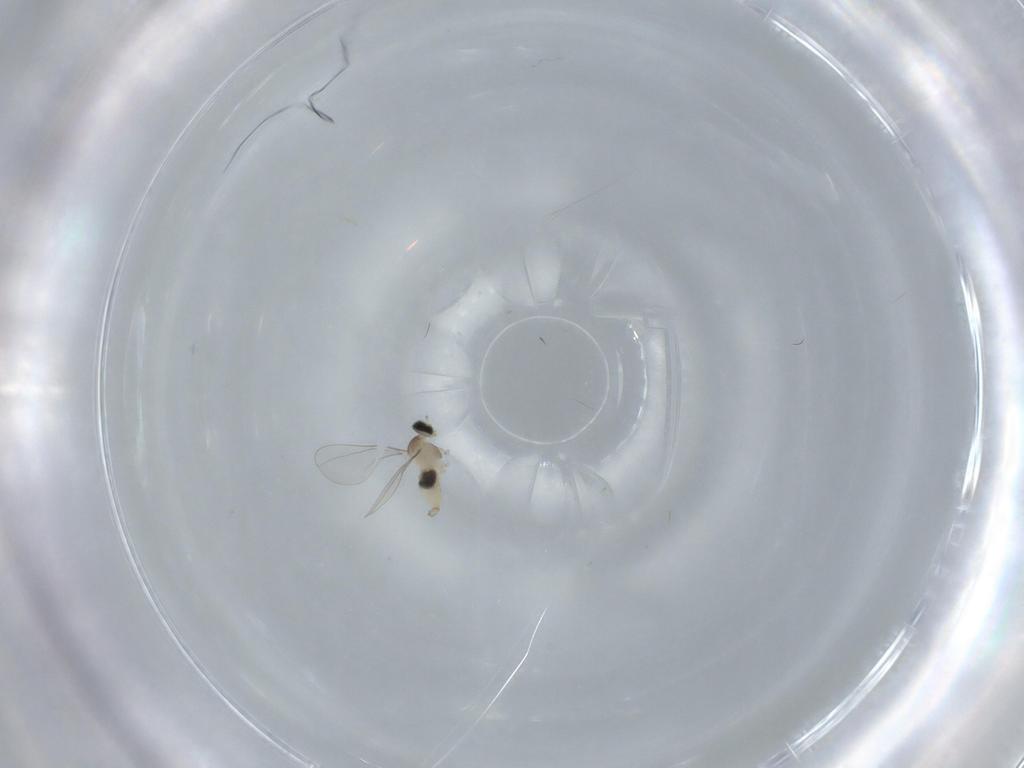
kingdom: Animalia
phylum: Arthropoda
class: Insecta
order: Diptera
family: Cecidomyiidae
